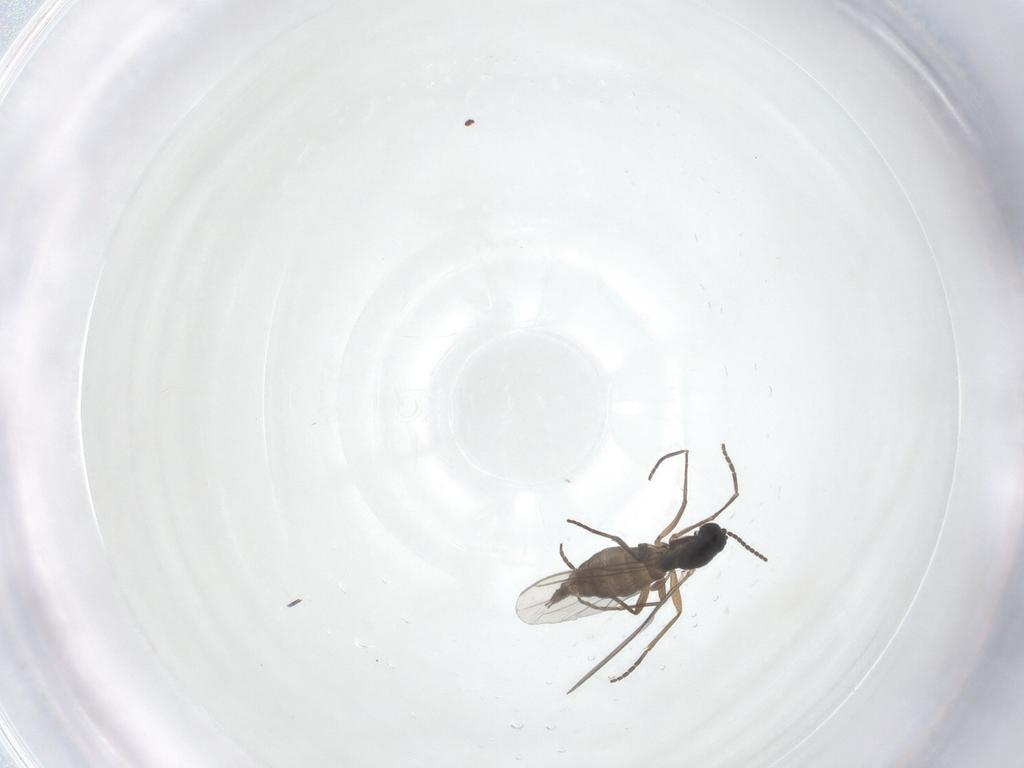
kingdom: Animalia
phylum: Arthropoda
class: Insecta
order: Diptera
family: Sciaridae
